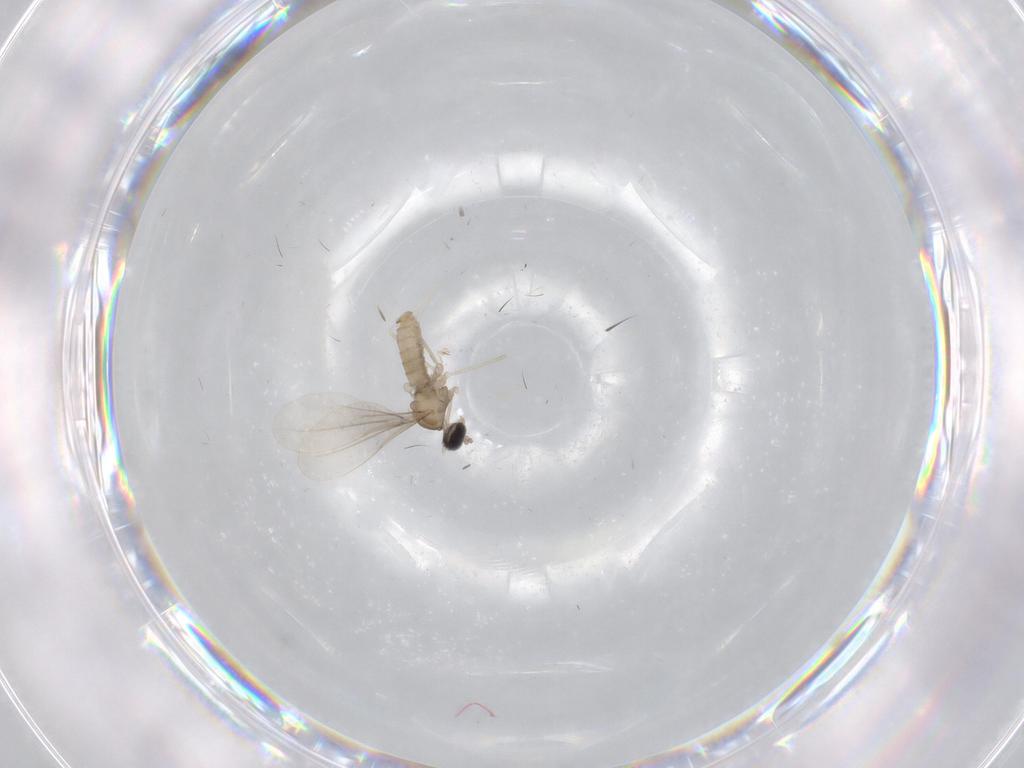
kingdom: Animalia
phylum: Arthropoda
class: Insecta
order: Diptera
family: Cecidomyiidae
